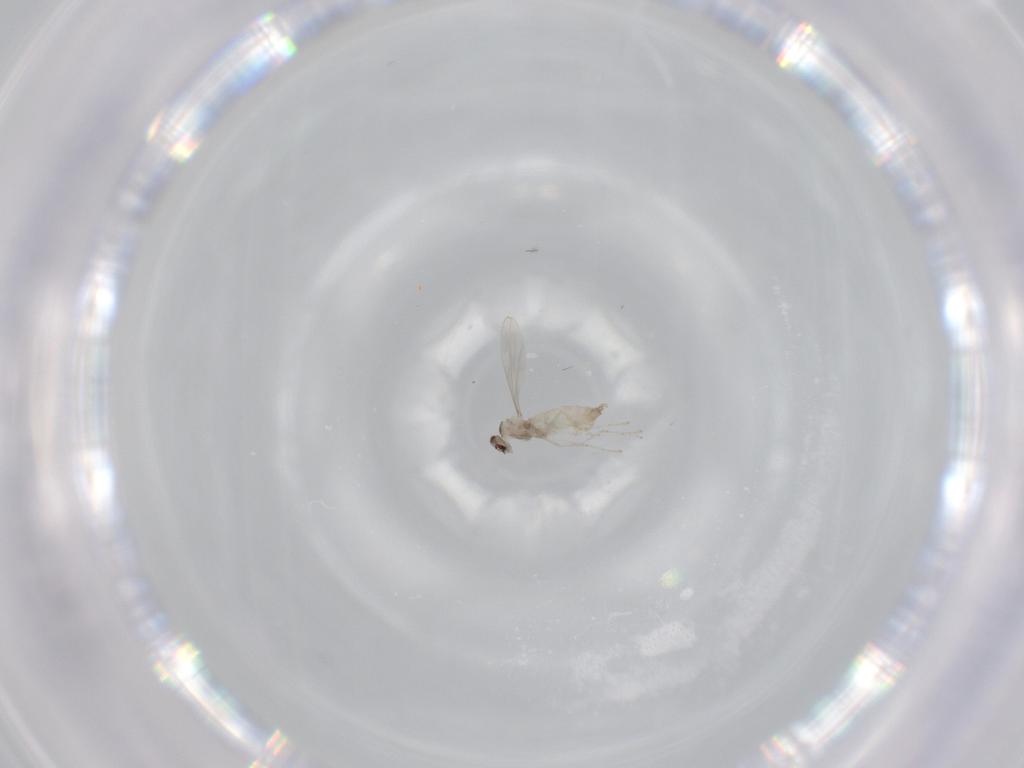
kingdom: Animalia
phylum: Arthropoda
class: Insecta
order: Diptera
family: Cecidomyiidae
